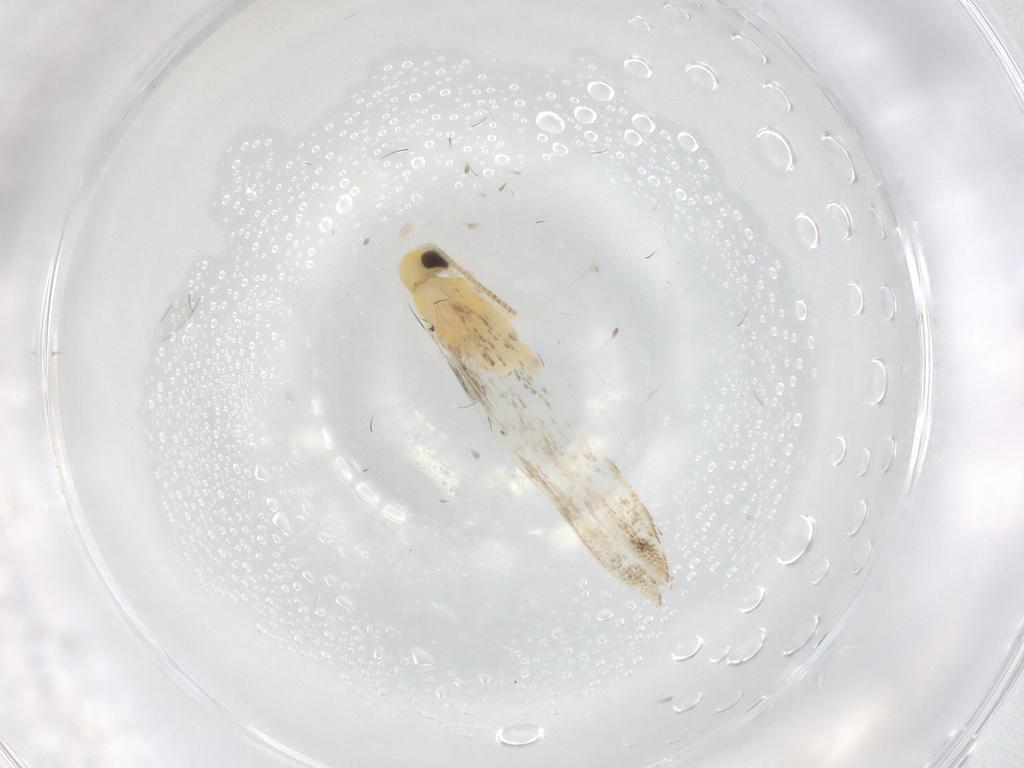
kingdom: Animalia
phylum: Arthropoda
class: Insecta
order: Lepidoptera
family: Gracillariidae
